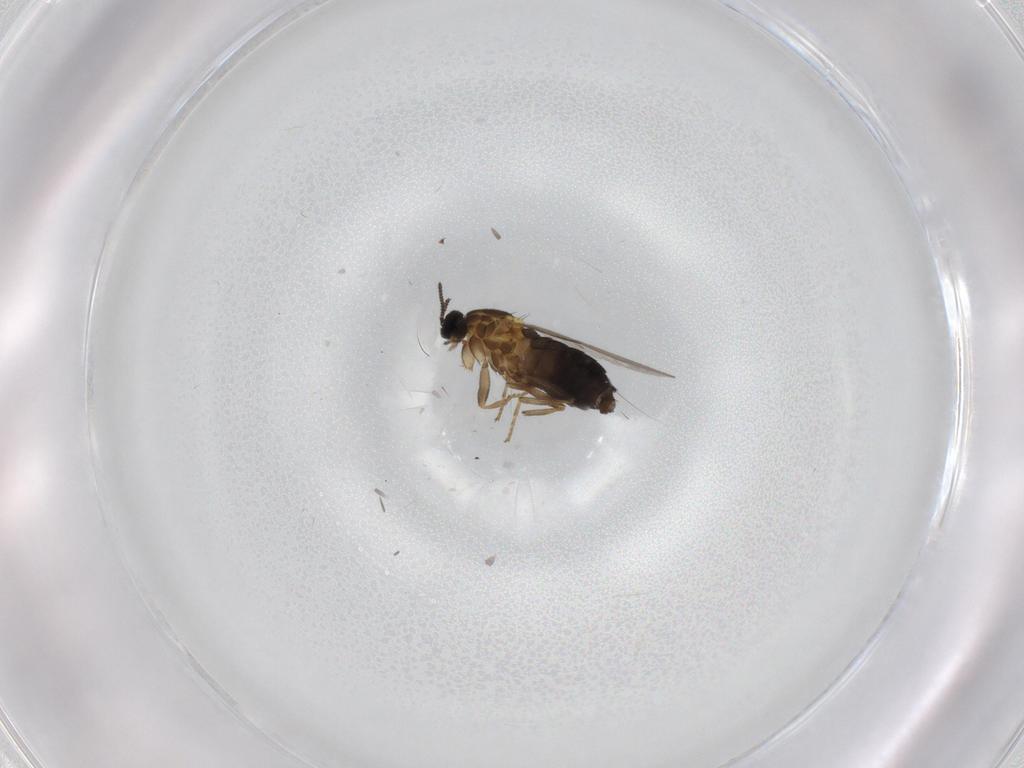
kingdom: Animalia
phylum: Arthropoda
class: Insecta
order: Diptera
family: Scatopsidae
